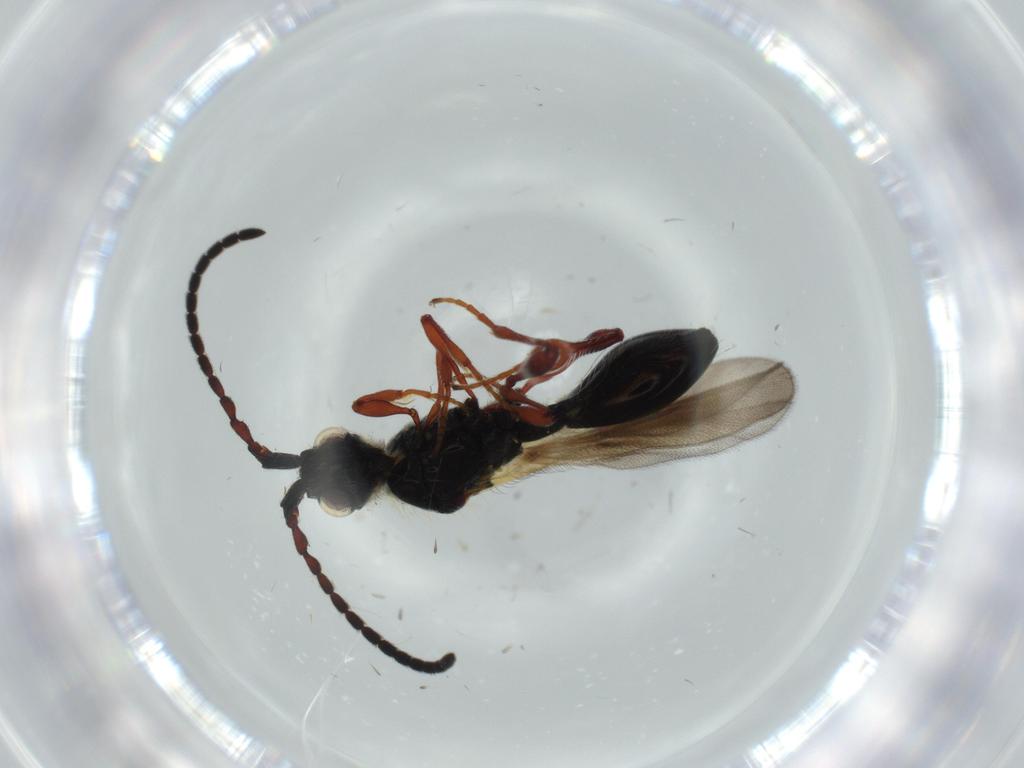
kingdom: Animalia
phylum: Arthropoda
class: Insecta
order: Hymenoptera
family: Diapriidae
